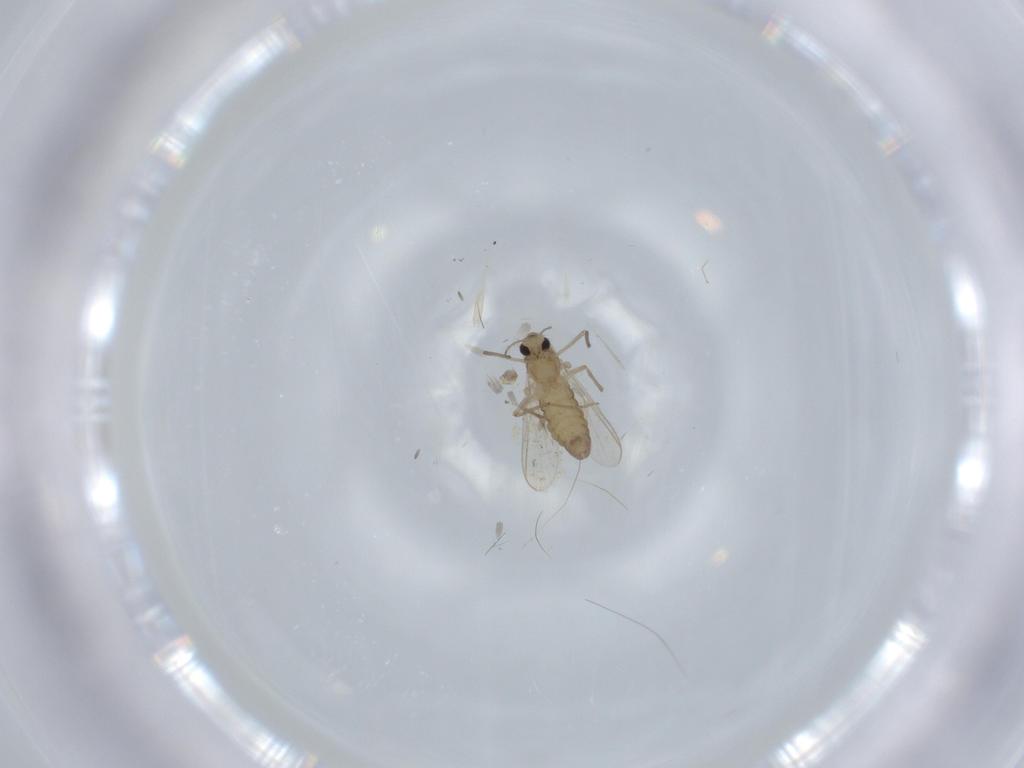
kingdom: Animalia
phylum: Arthropoda
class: Insecta
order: Diptera
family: Chironomidae
